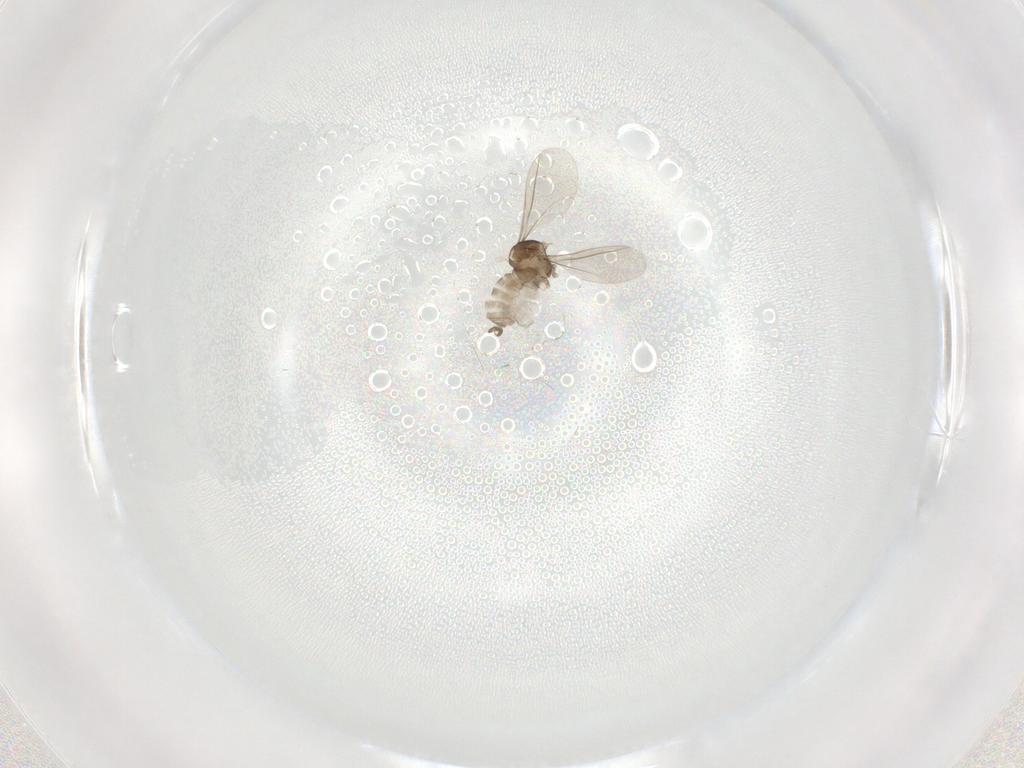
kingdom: Animalia
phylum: Arthropoda
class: Insecta
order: Diptera
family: Cecidomyiidae
